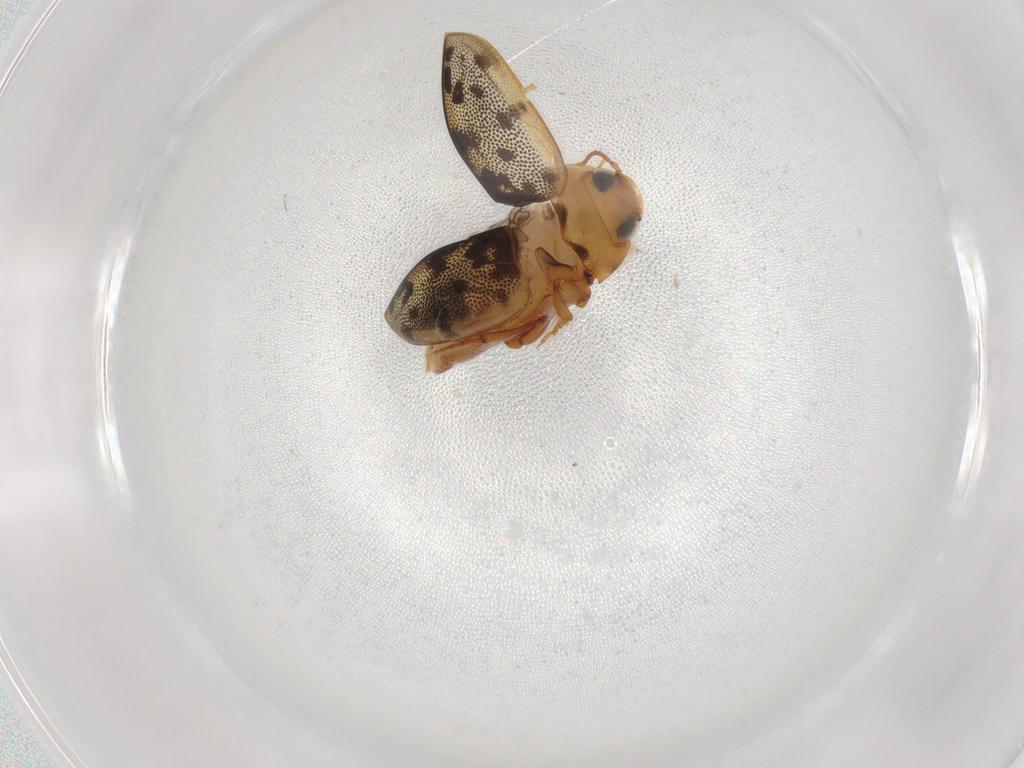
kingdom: Animalia
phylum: Arthropoda
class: Insecta
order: Coleoptera
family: Dytiscidae
